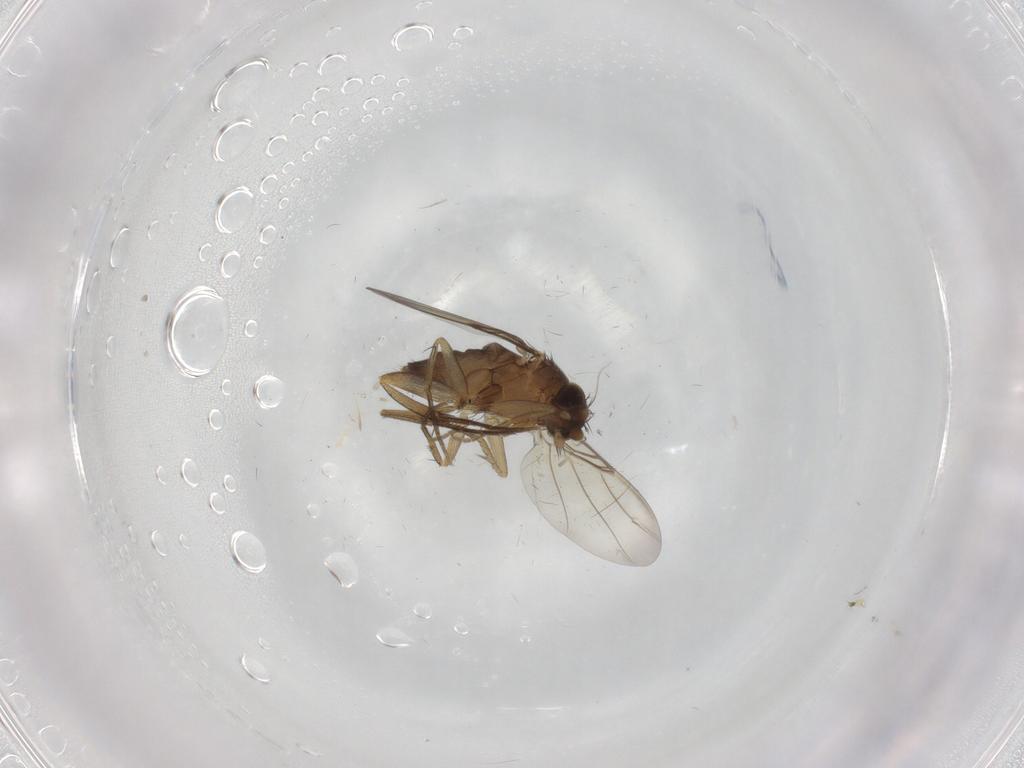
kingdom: Animalia
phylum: Arthropoda
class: Insecta
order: Diptera
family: Phoridae
